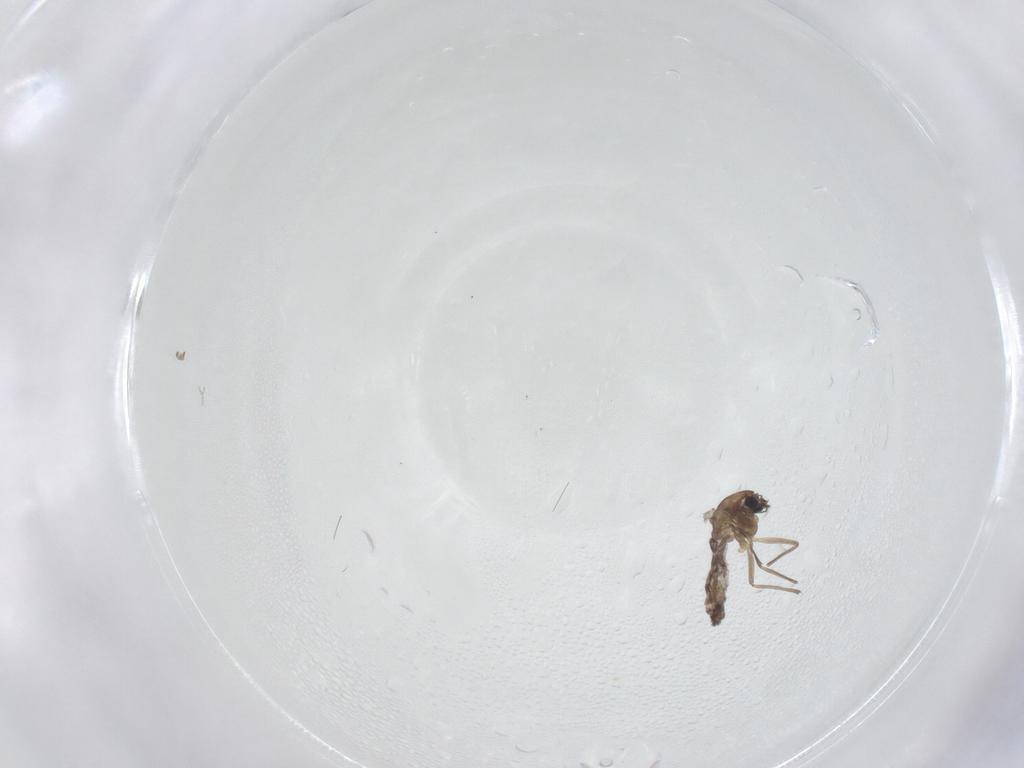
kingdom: Animalia
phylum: Arthropoda
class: Insecta
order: Diptera
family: Chironomidae
